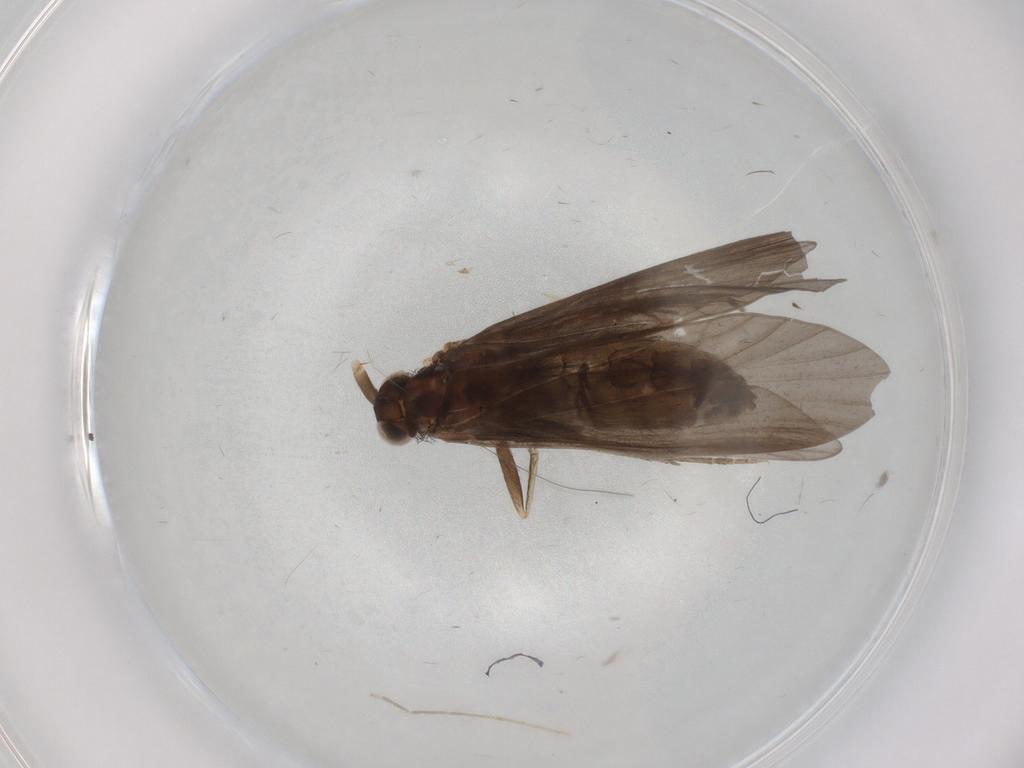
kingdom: Animalia
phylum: Arthropoda
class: Insecta
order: Trichoptera
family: Helicopsychidae
